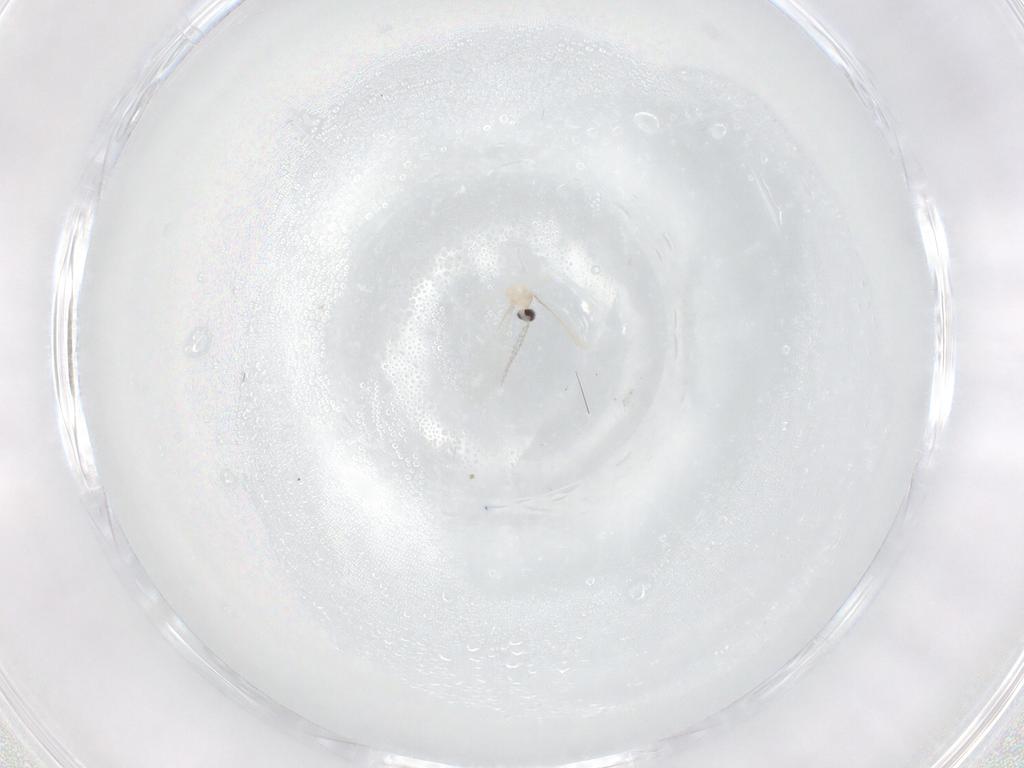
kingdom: Animalia
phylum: Arthropoda
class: Insecta
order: Diptera
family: Cecidomyiidae
